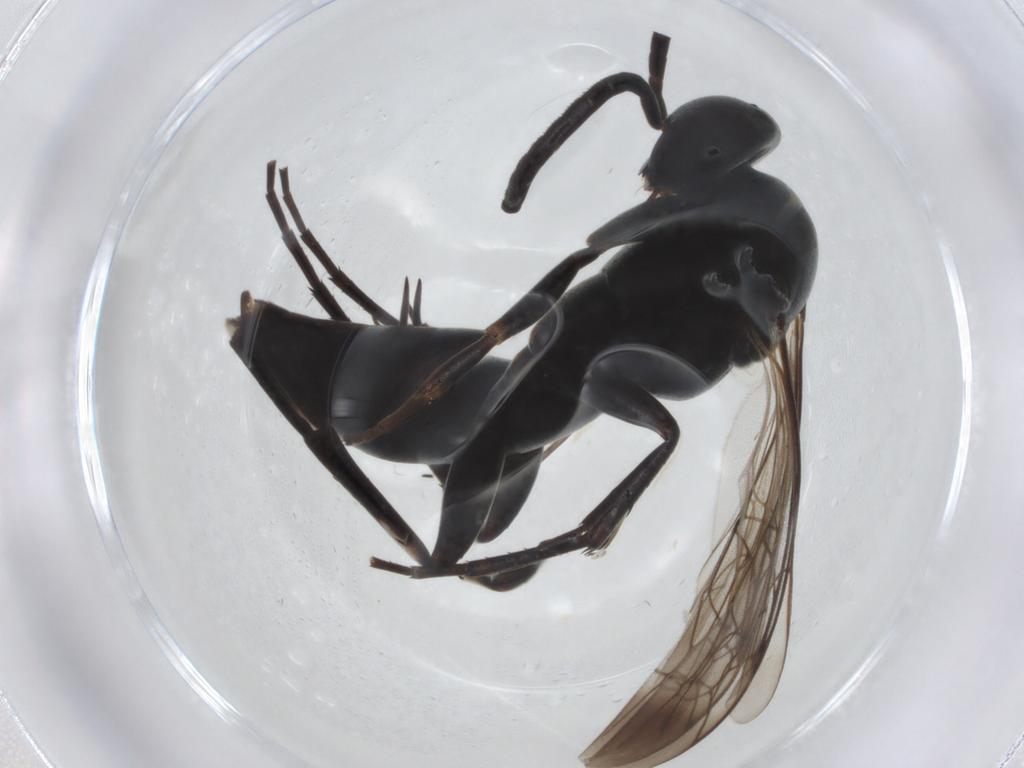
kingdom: Animalia
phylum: Arthropoda
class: Insecta
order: Hymenoptera
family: Pompilidae
